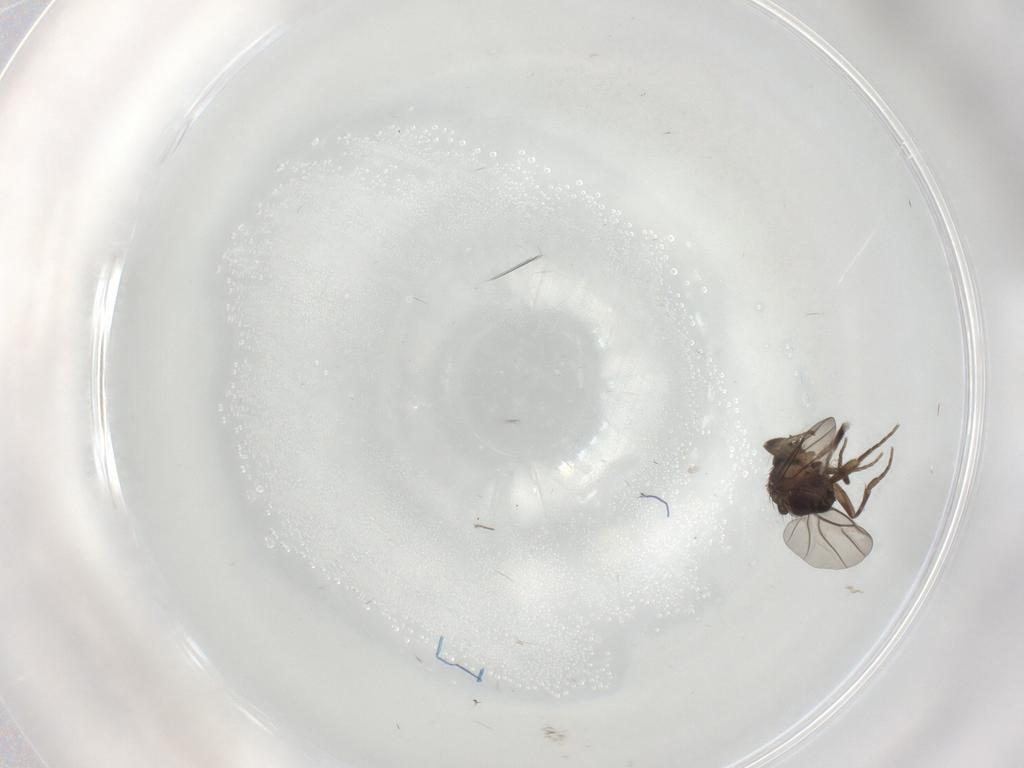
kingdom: Animalia
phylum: Arthropoda
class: Insecta
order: Diptera
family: Phoridae
